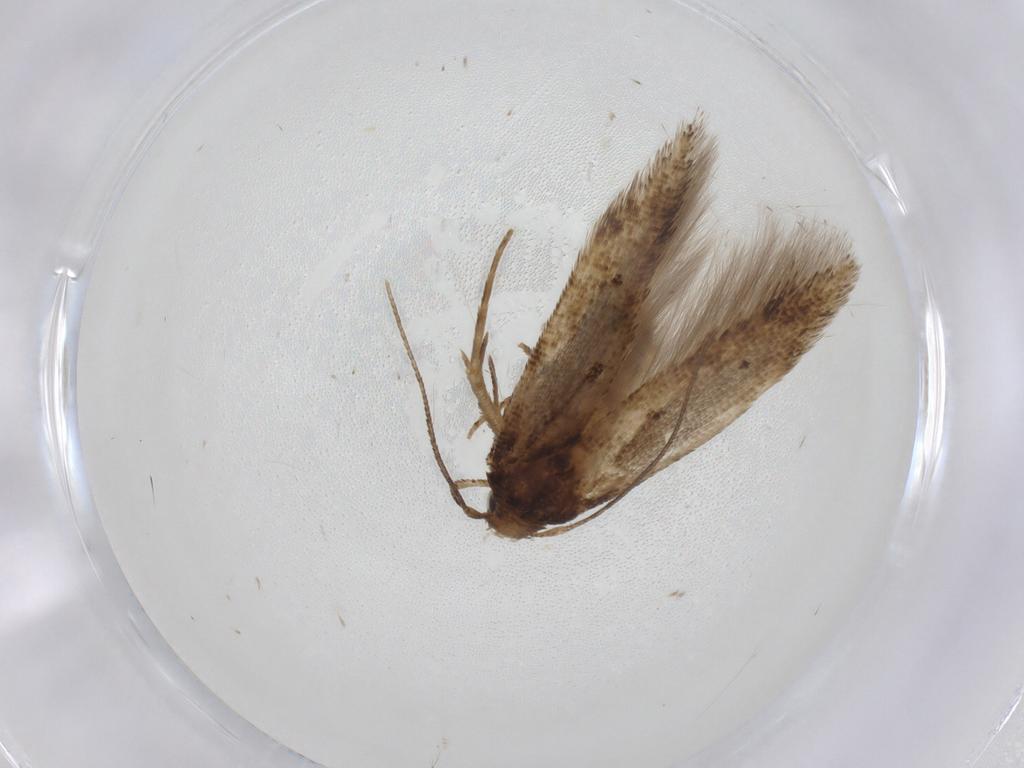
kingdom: Animalia
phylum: Arthropoda
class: Insecta
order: Lepidoptera
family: Cosmopterigidae
